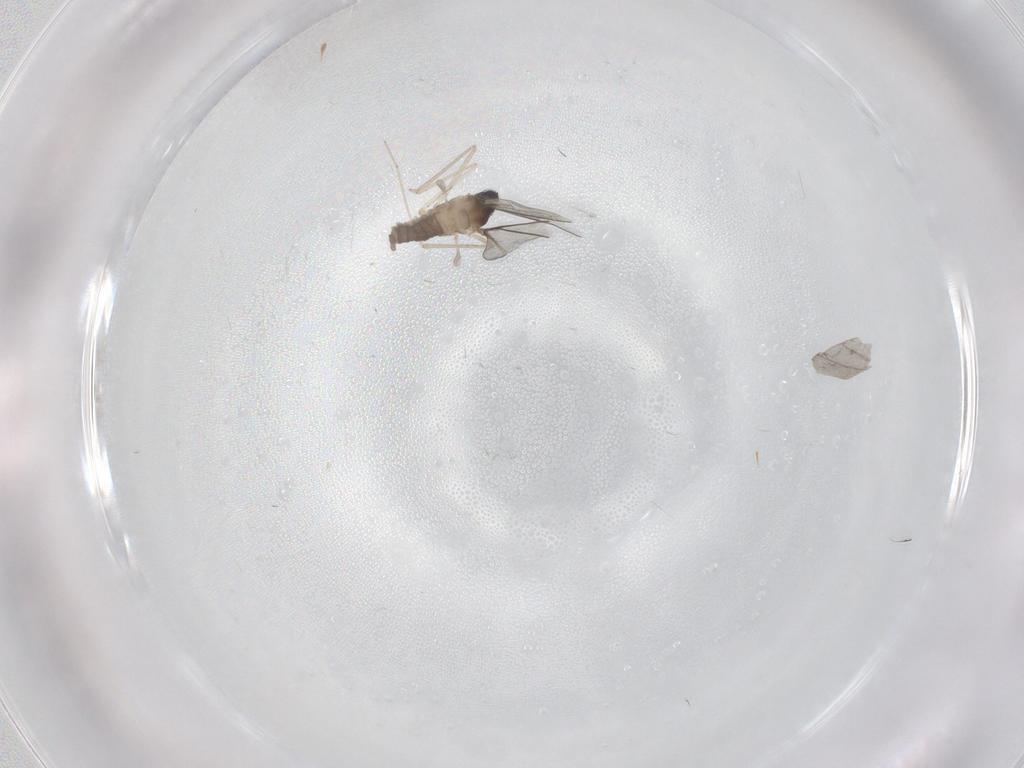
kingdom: Animalia
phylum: Arthropoda
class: Insecta
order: Diptera
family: Cecidomyiidae
